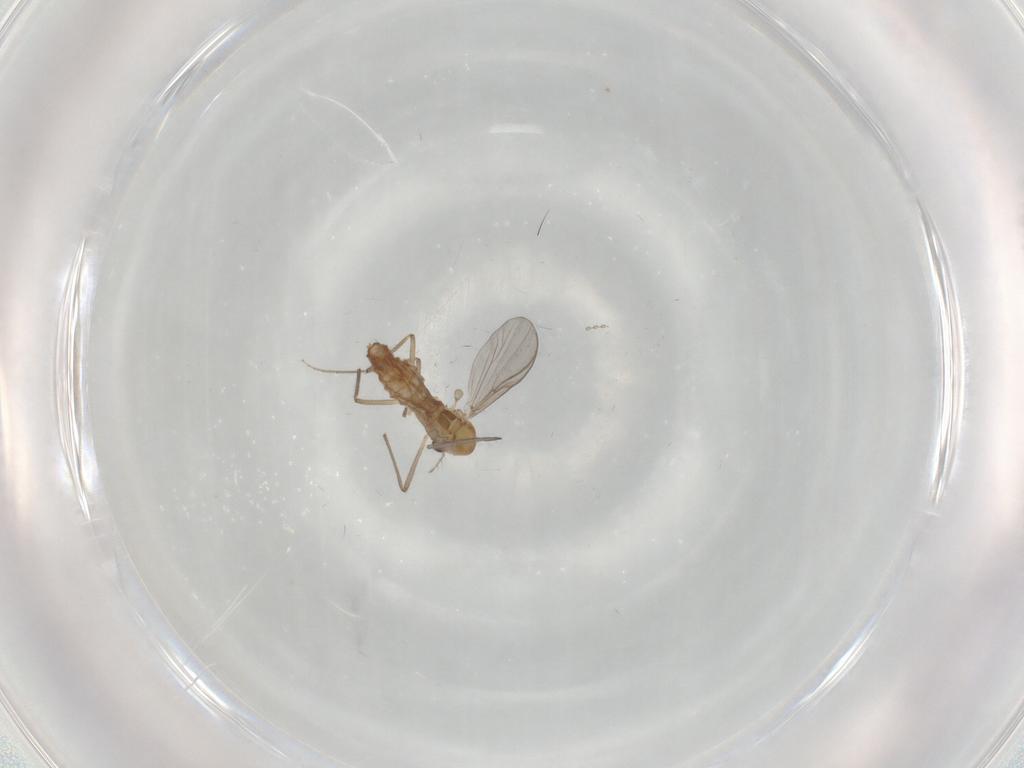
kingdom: Animalia
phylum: Arthropoda
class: Insecta
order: Diptera
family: Chironomidae
